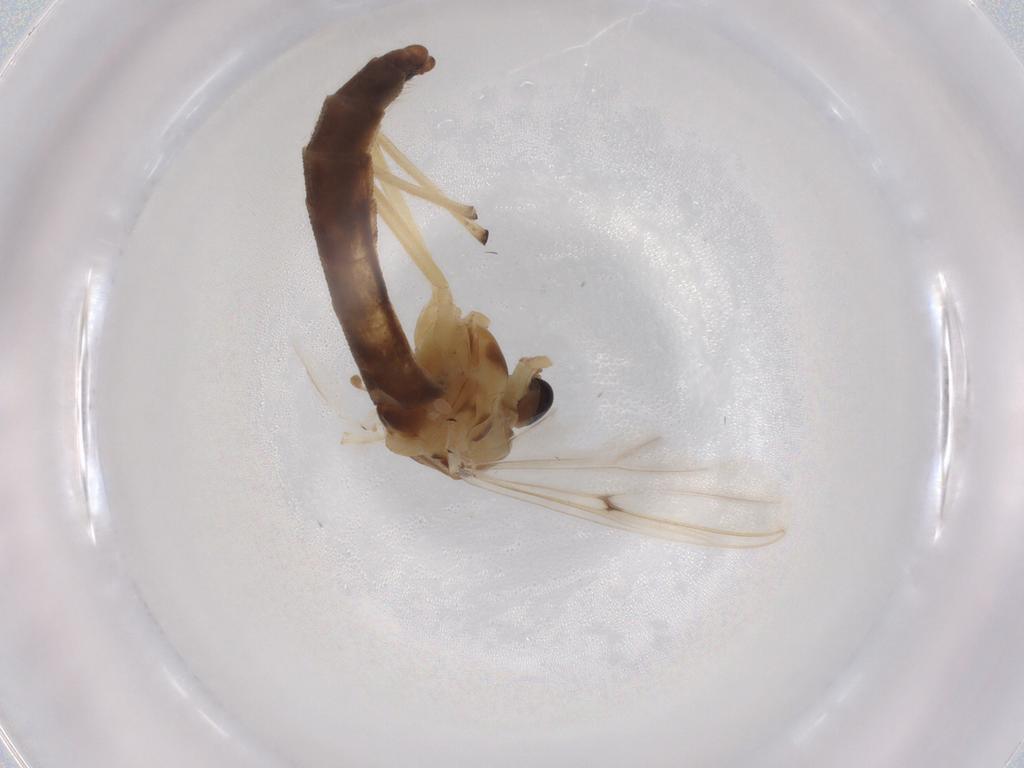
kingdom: Animalia
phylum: Arthropoda
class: Insecta
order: Diptera
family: Chironomidae
